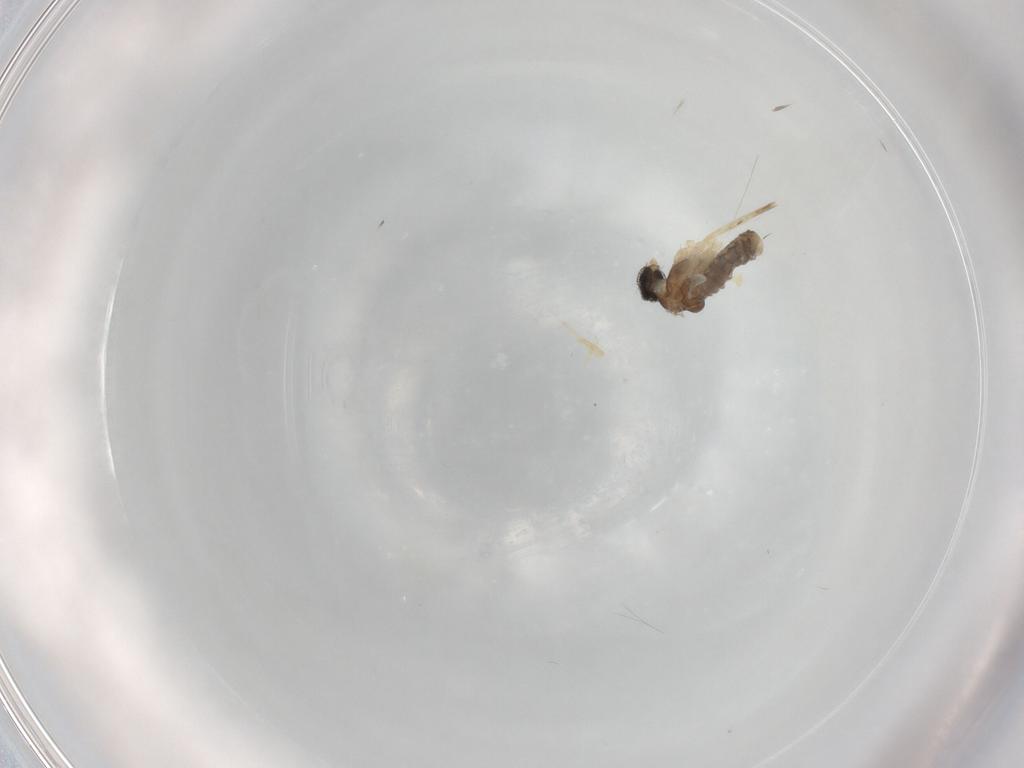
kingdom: Animalia
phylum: Arthropoda
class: Insecta
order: Diptera
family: Cecidomyiidae
